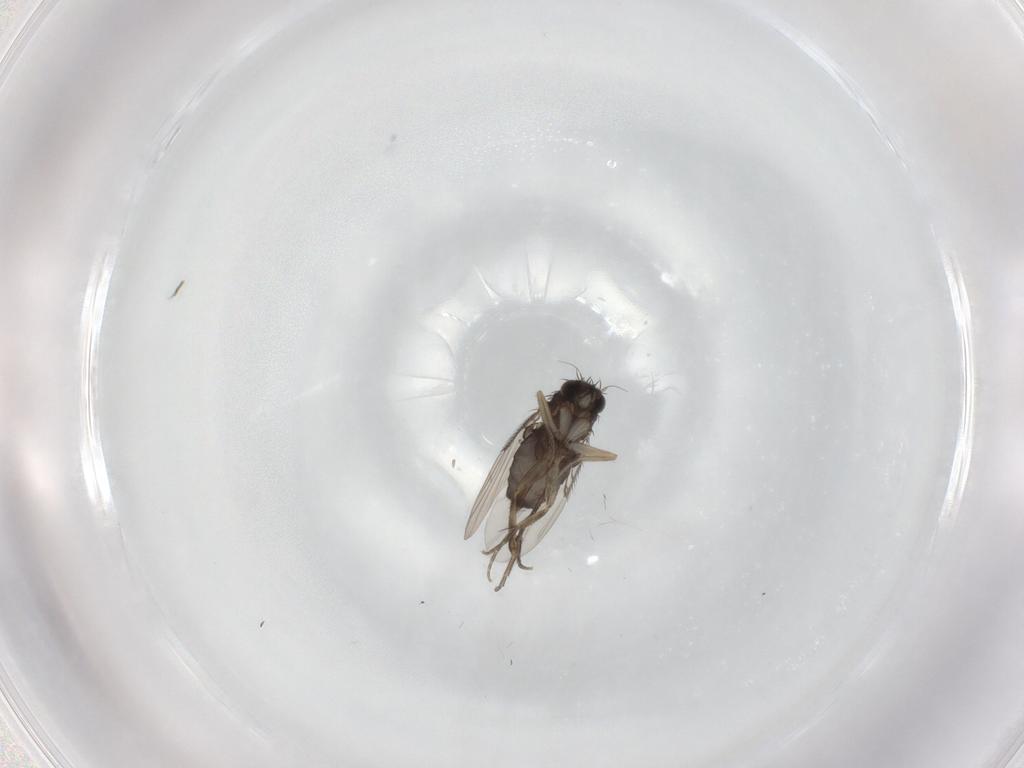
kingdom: Animalia
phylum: Arthropoda
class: Insecta
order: Diptera
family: Phoridae
